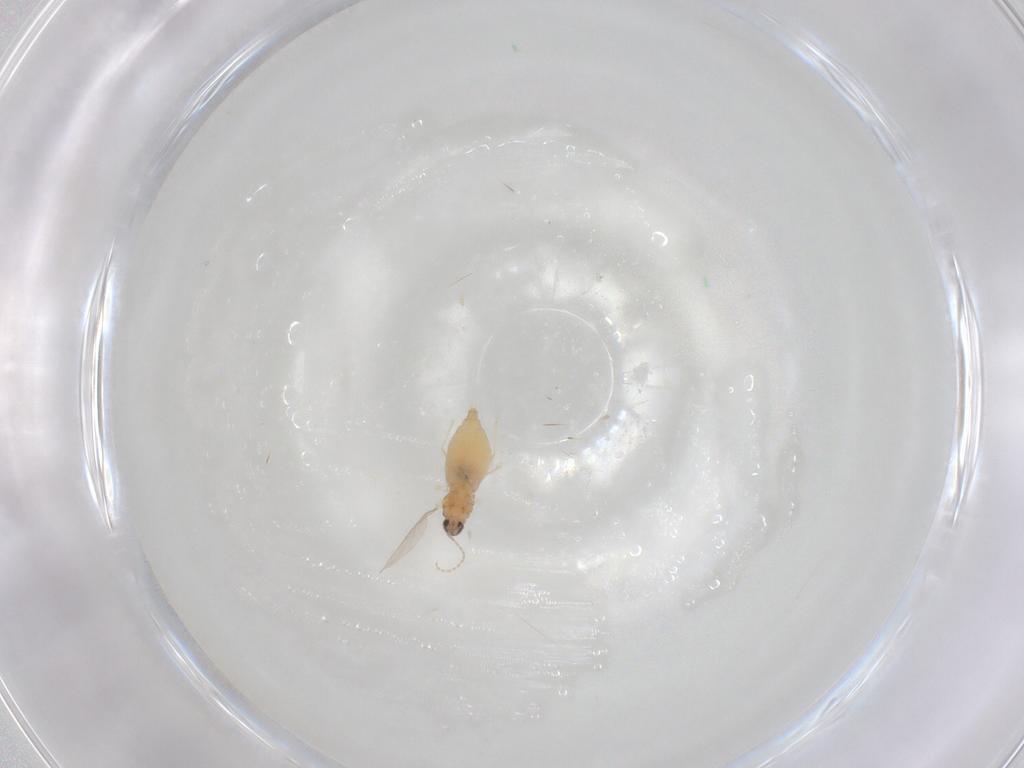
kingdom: Animalia
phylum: Arthropoda
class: Insecta
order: Diptera
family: Cecidomyiidae
